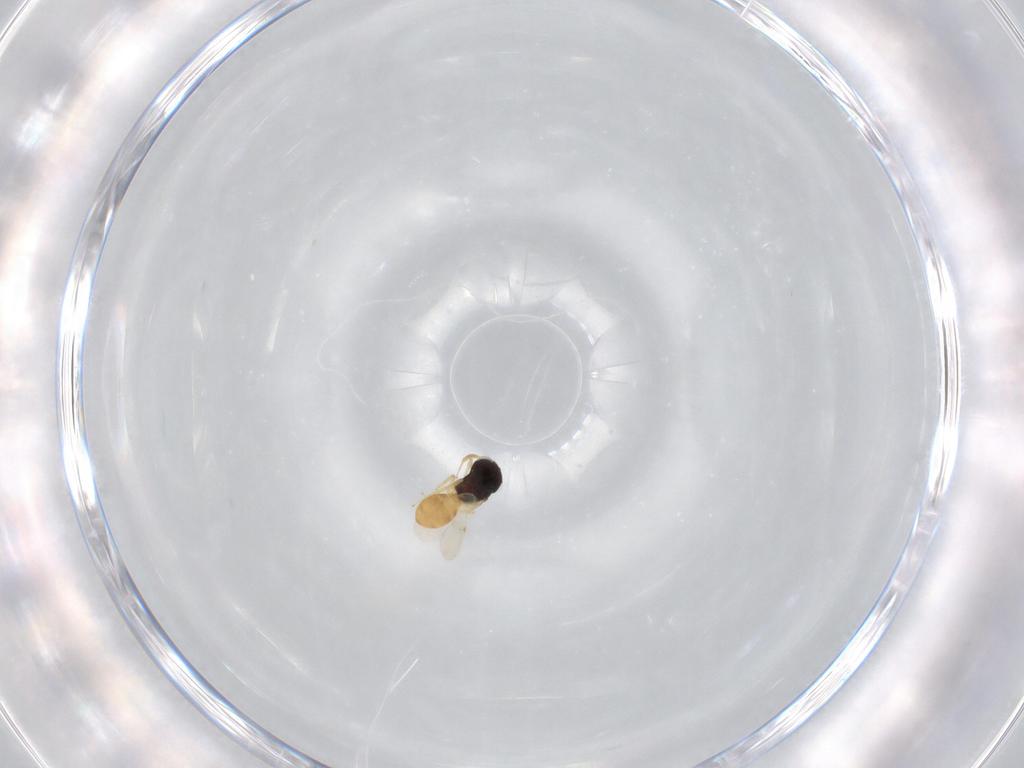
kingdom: Animalia
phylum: Arthropoda
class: Insecta
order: Hymenoptera
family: Scelionidae
